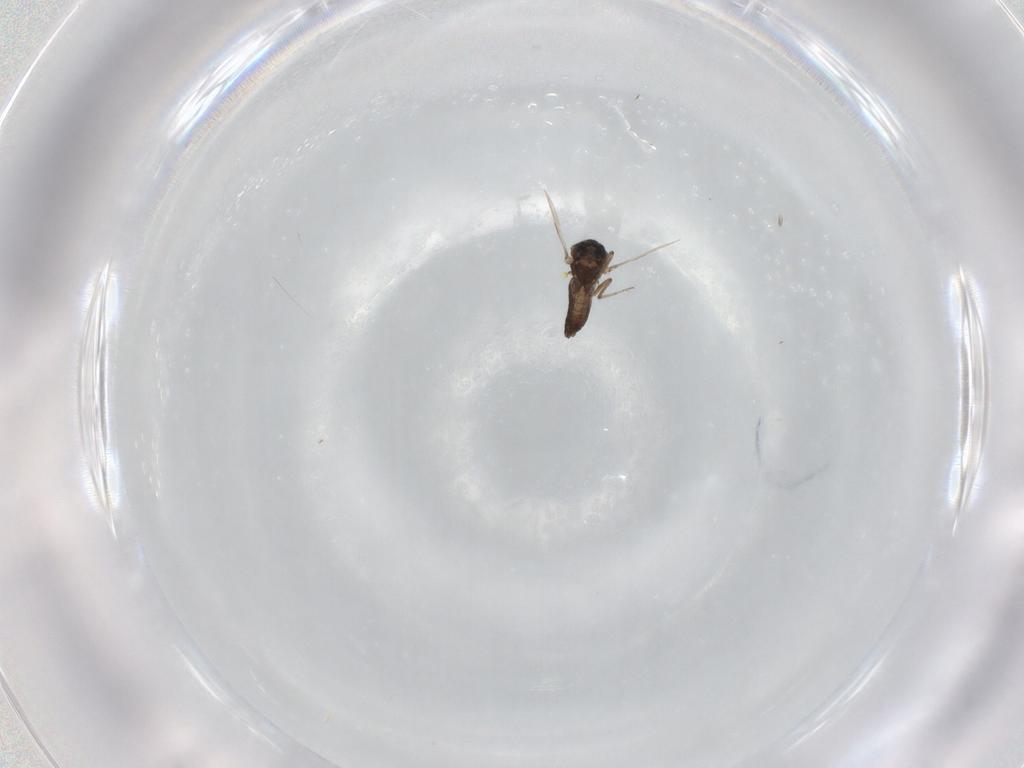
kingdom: Animalia
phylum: Arthropoda
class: Insecta
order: Diptera
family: Ceratopogonidae
